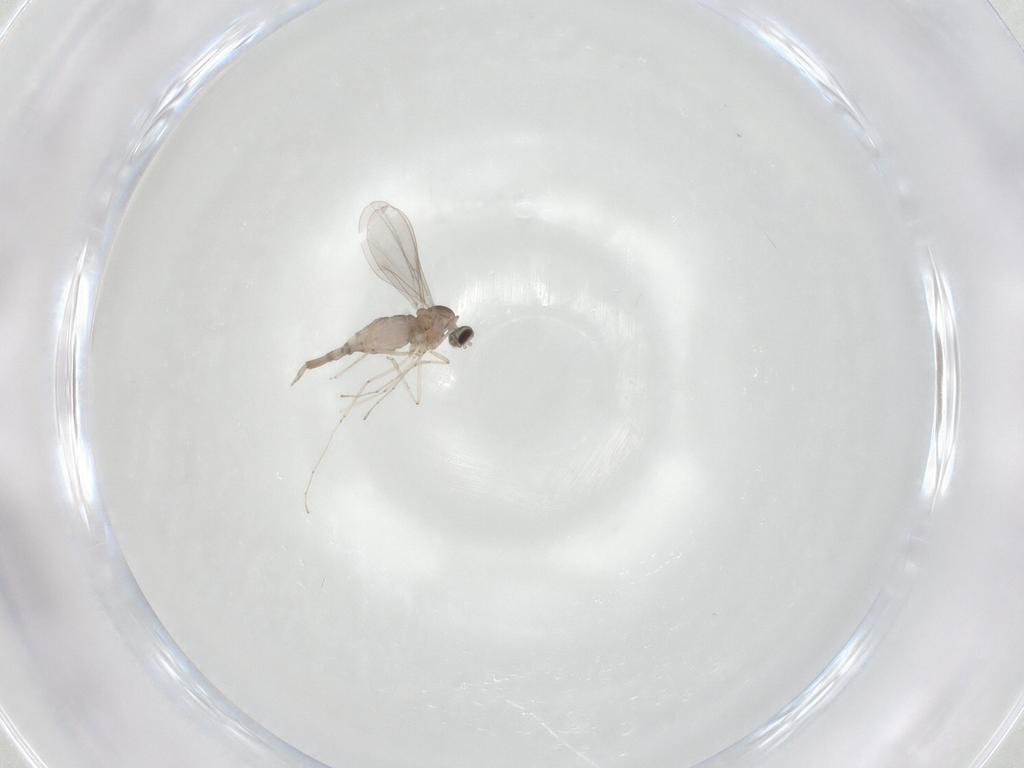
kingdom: Animalia
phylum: Arthropoda
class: Insecta
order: Diptera
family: Cecidomyiidae
